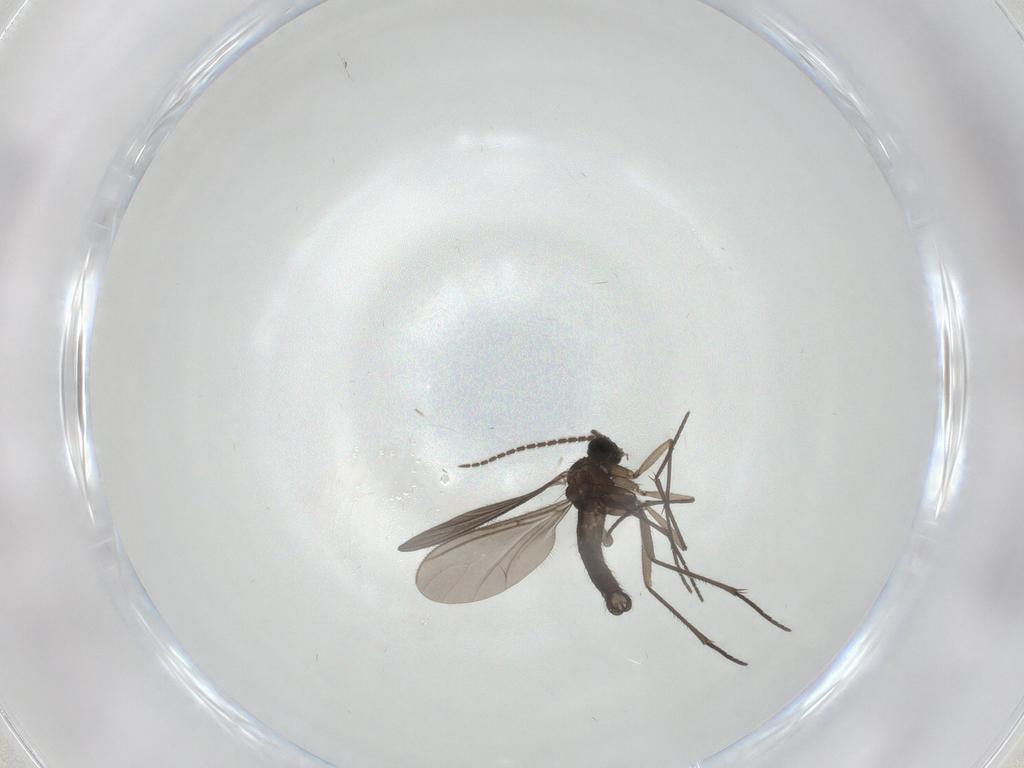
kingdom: Animalia
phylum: Arthropoda
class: Insecta
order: Diptera
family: Cecidomyiidae
